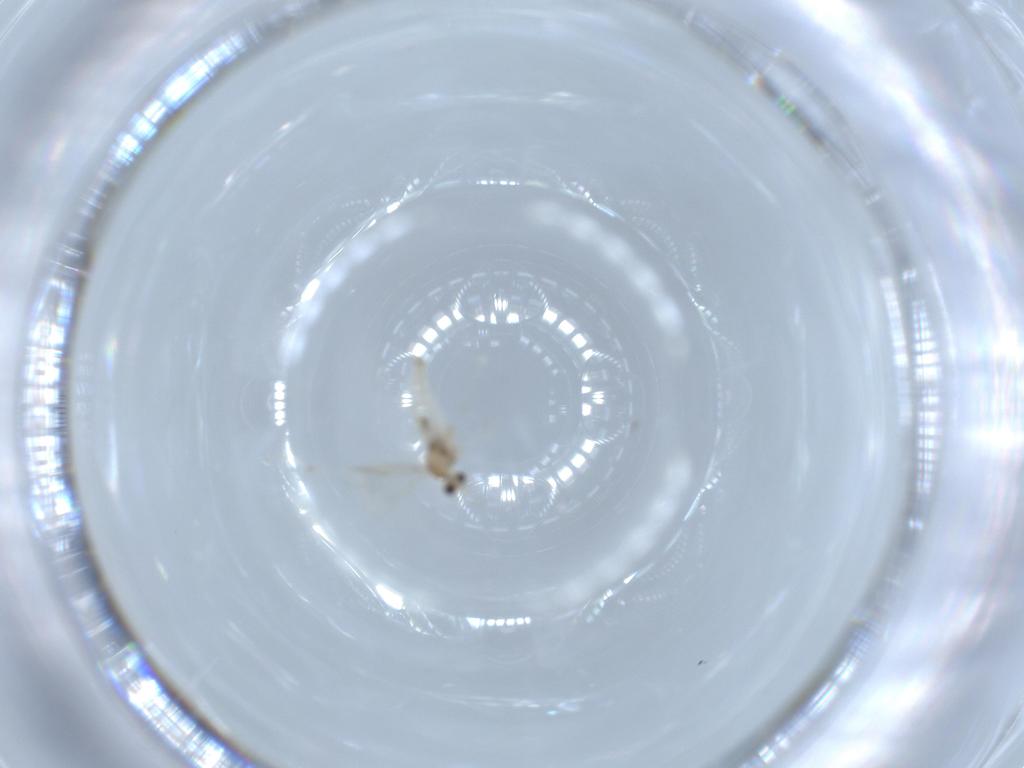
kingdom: Animalia
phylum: Arthropoda
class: Insecta
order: Diptera
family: Cecidomyiidae
